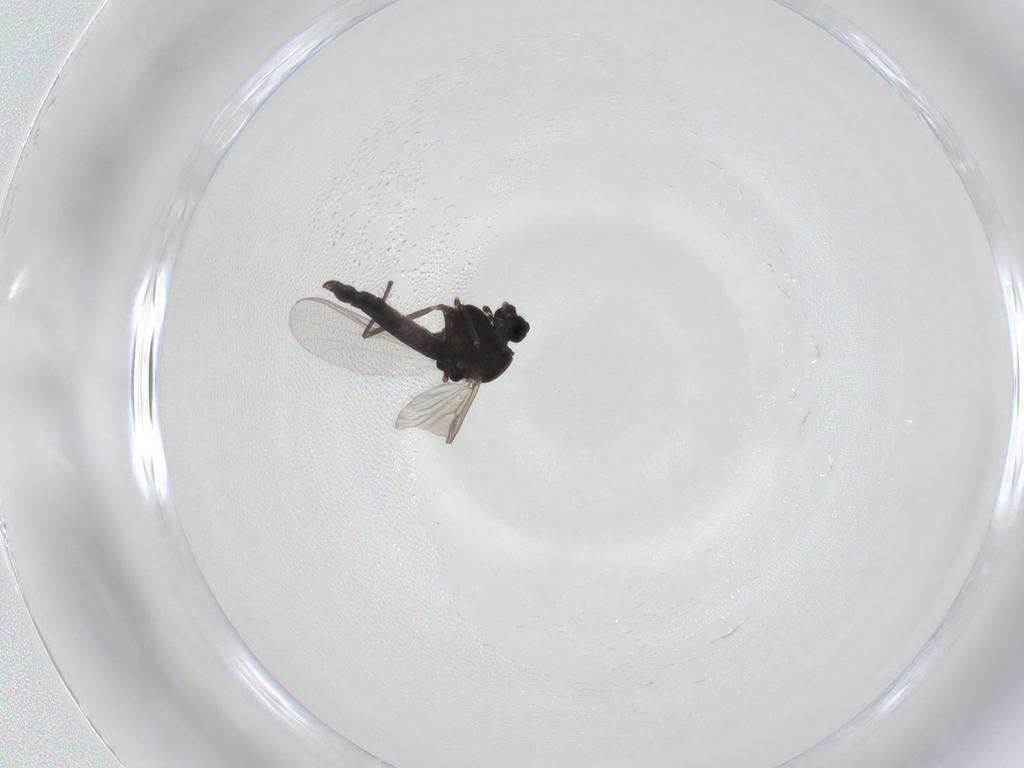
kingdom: Animalia
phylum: Arthropoda
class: Insecta
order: Diptera
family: Chironomidae
